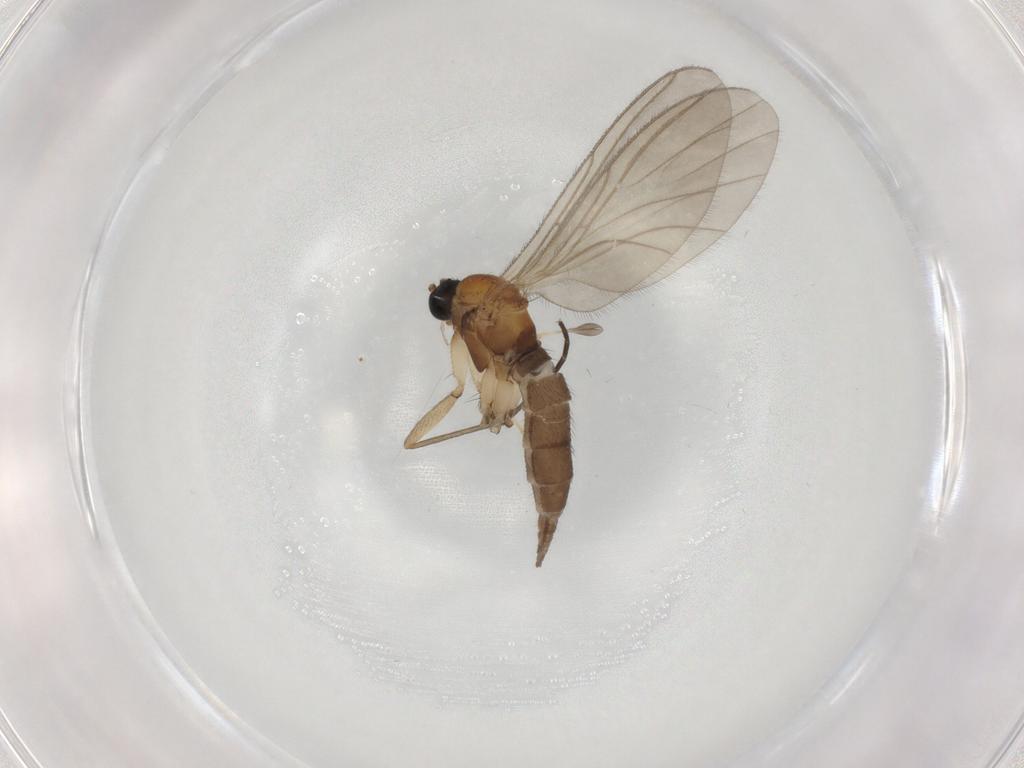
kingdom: Animalia
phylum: Arthropoda
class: Insecta
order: Diptera
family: Sciaridae
